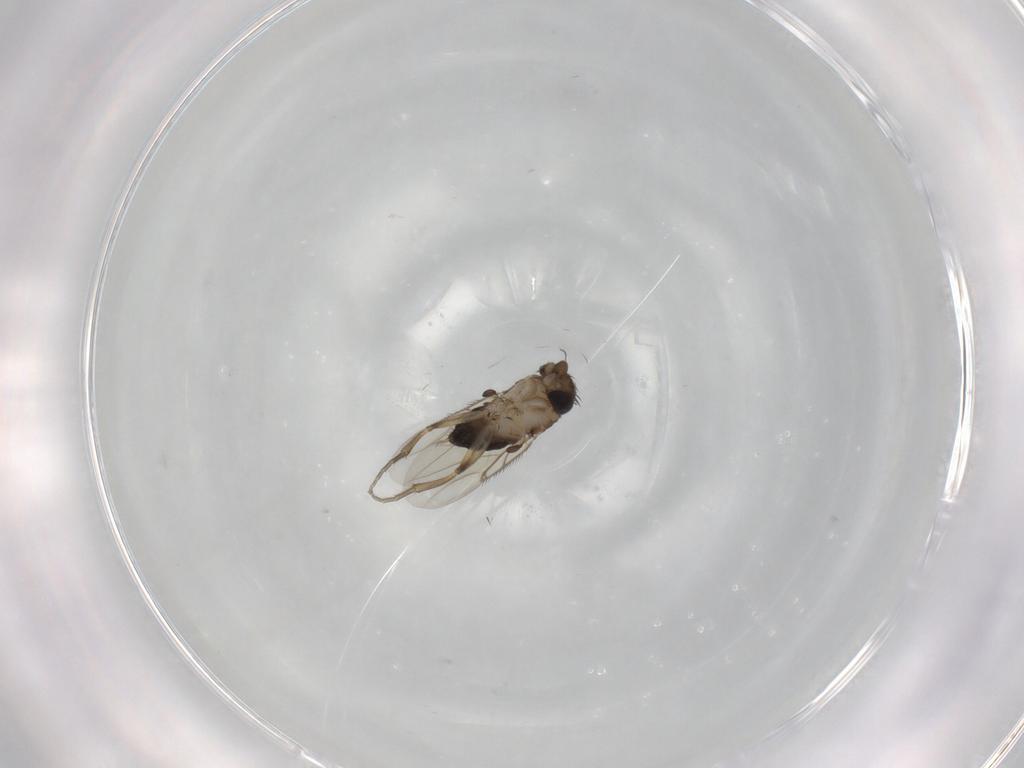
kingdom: Animalia
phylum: Arthropoda
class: Insecta
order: Diptera
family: Phoridae
